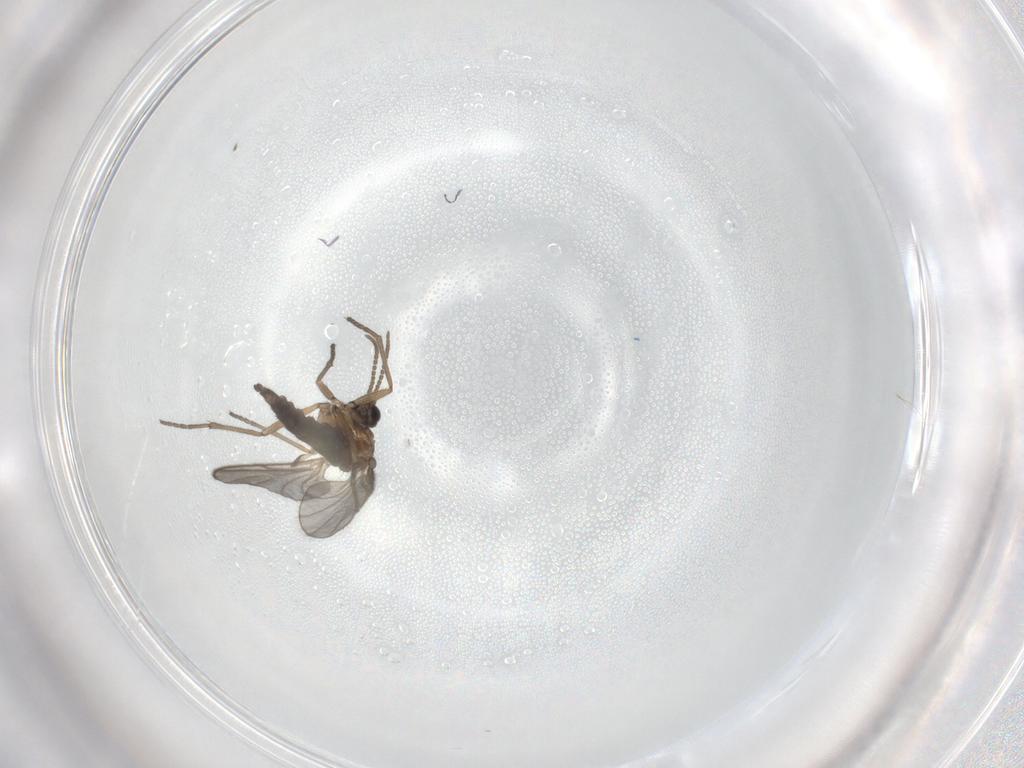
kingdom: Animalia
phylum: Arthropoda
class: Insecta
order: Diptera
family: Sciaridae
